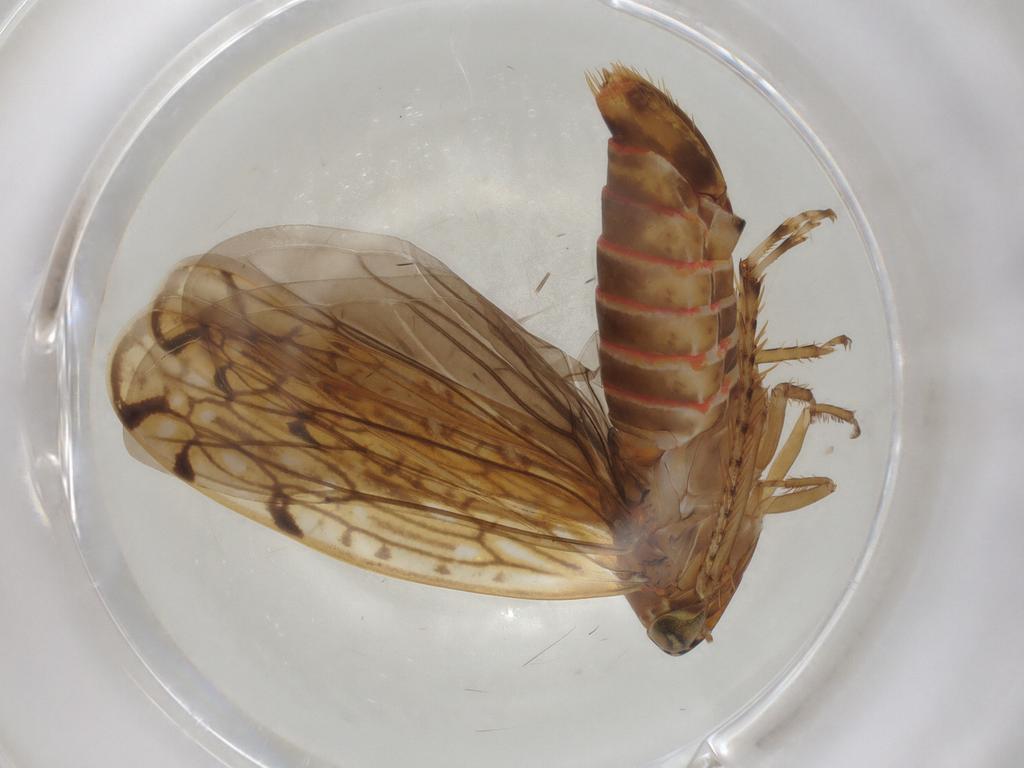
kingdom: Animalia
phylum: Arthropoda
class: Insecta
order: Hemiptera
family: Cicadellidae
